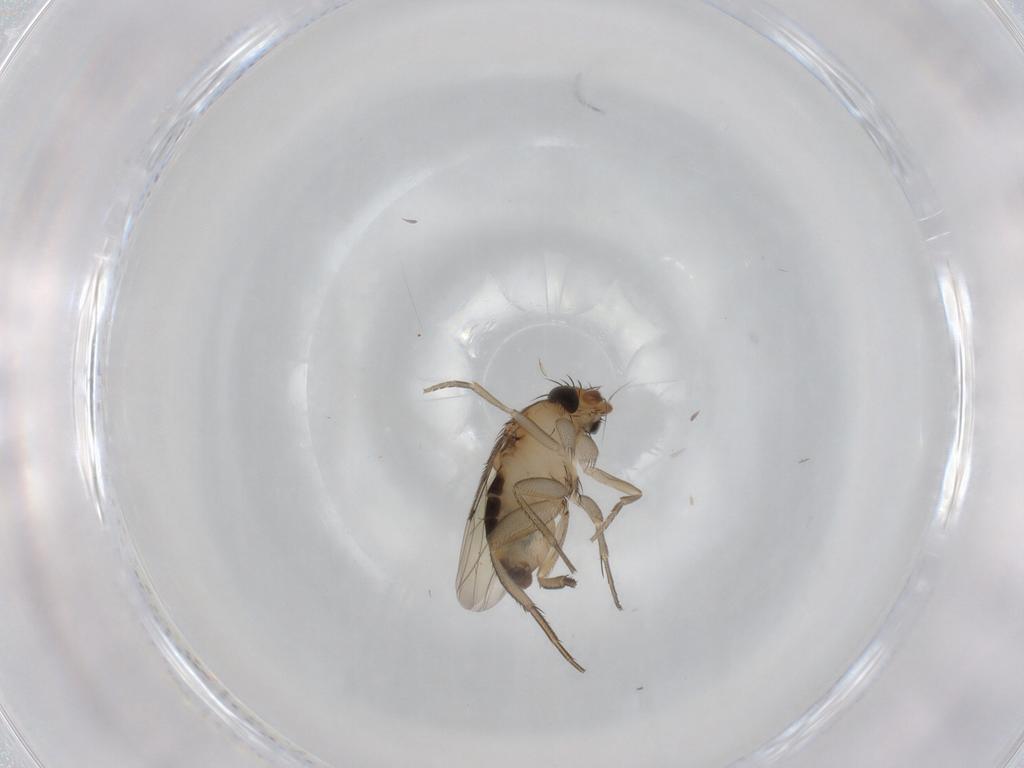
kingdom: Animalia
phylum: Arthropoda
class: Insecta
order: Diptera
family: Phoridae
